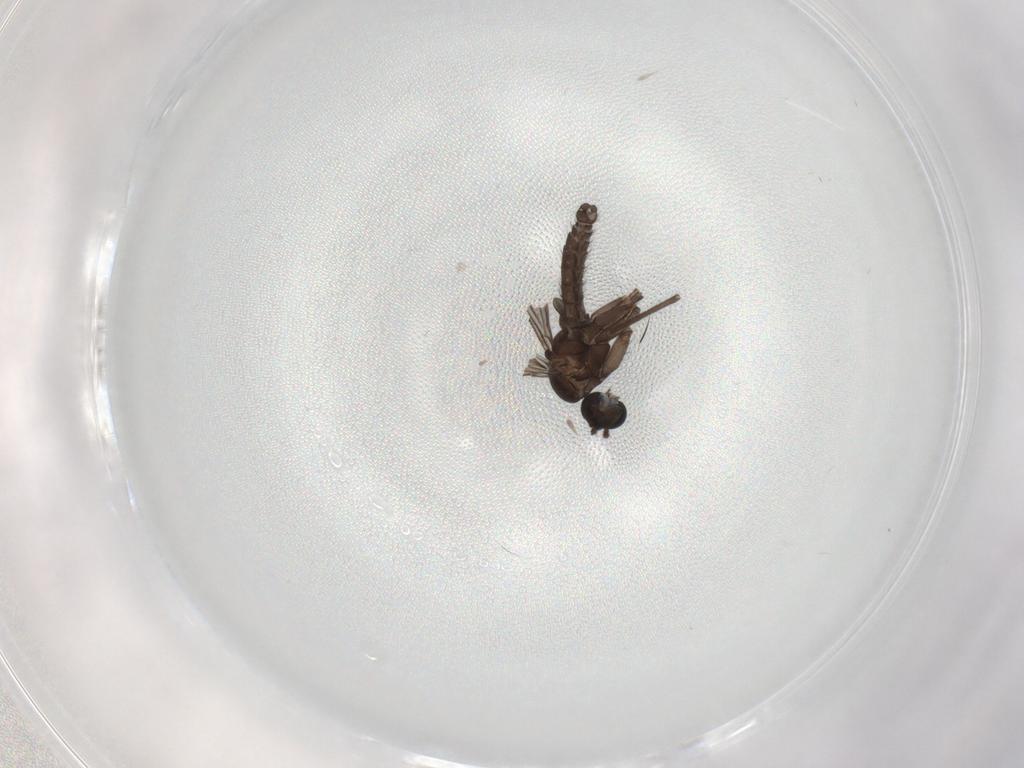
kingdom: Animalia
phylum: Arthropoda
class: Insecta
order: Diptera
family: Sciaridae
